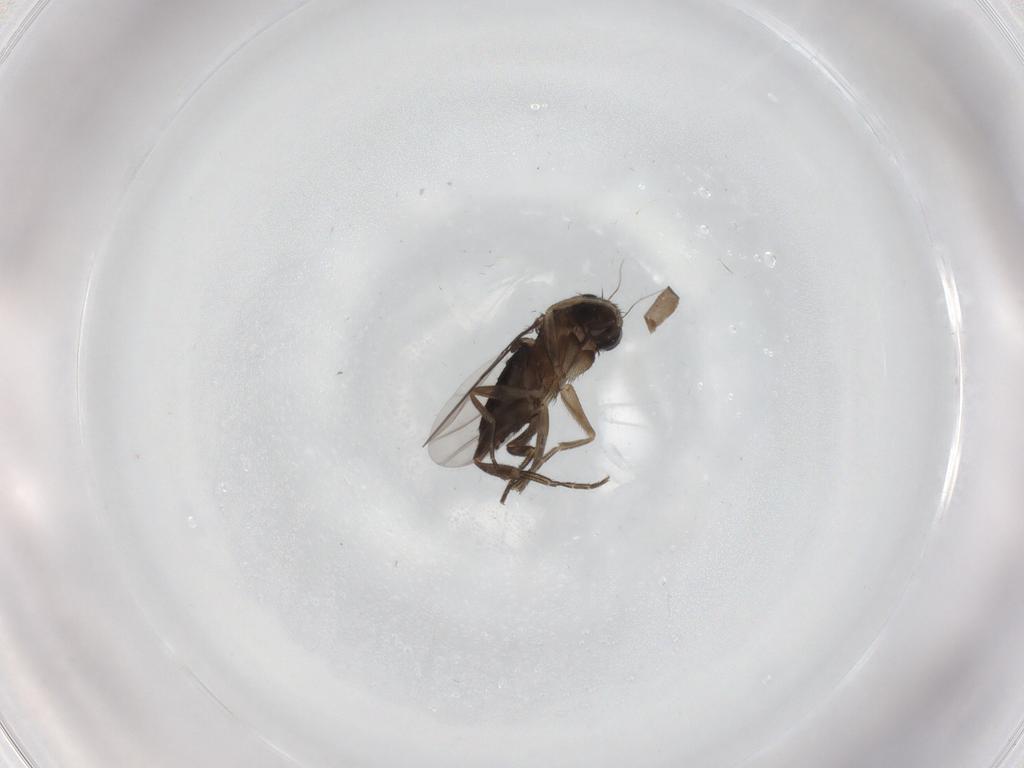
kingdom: Animalia
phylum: Arthropoda
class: Insecta
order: Diptera
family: Phoridae
